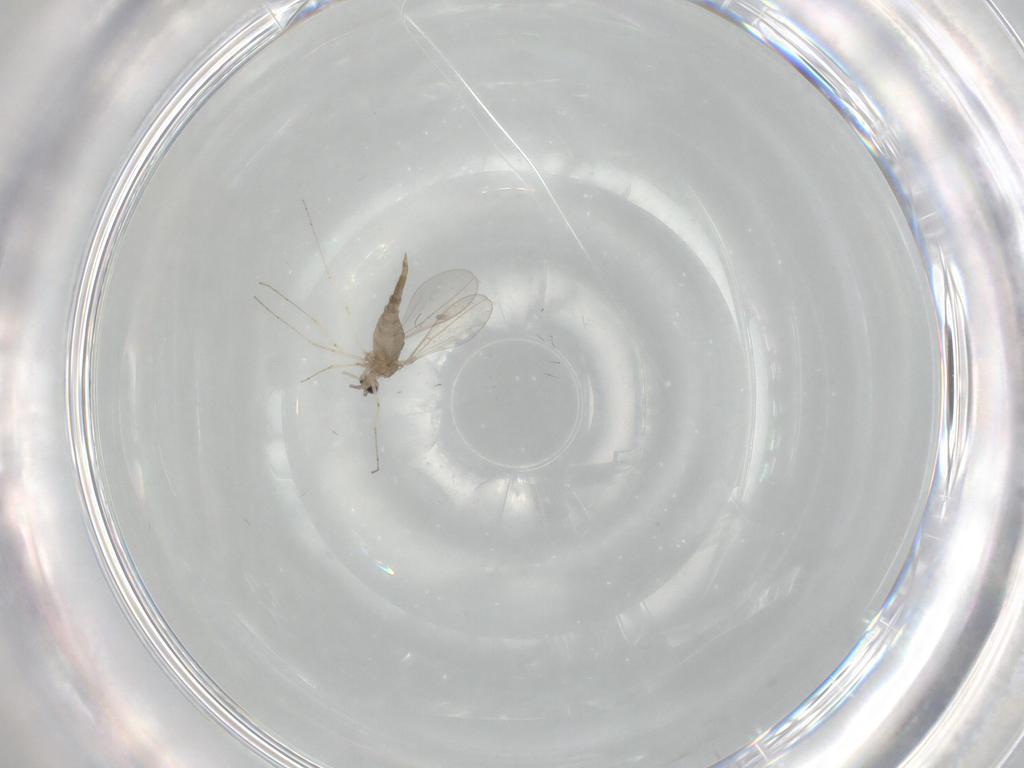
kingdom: Animalia
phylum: Arthropoda
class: Insecta
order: Diptera
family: Cecidomyiidae
